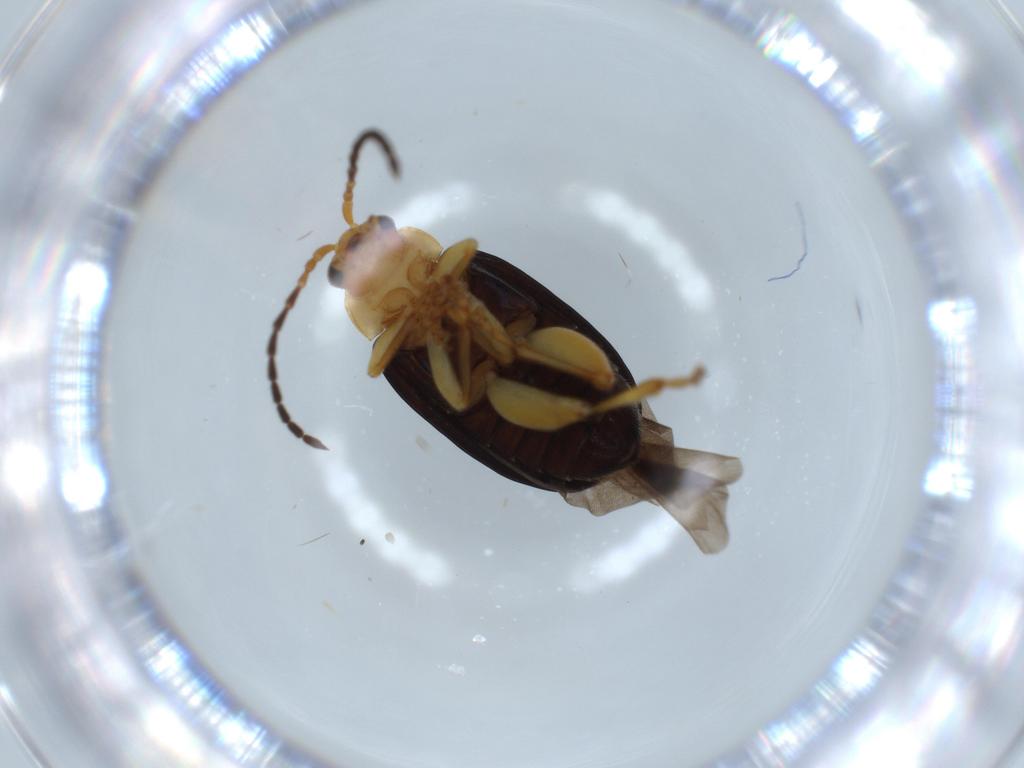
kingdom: Animalia
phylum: Arthropoda
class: Insecta
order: Coleoptera
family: Chrysomelidae
